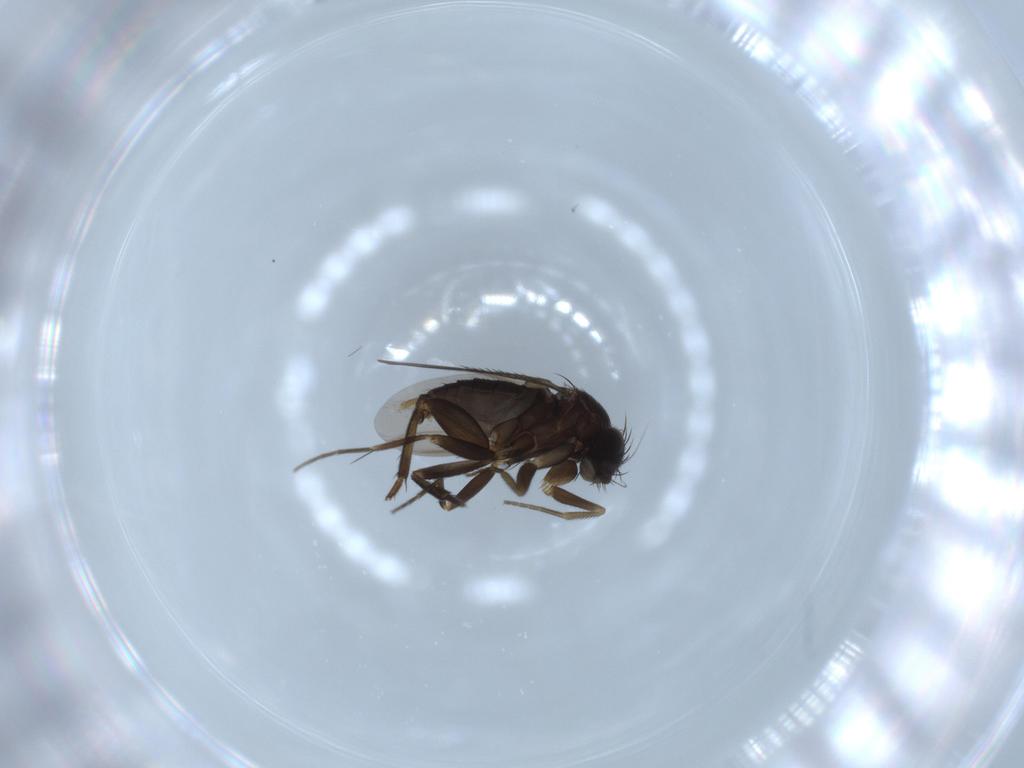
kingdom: Animalia
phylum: Arthropoda
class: Insecta
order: Diptera
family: Phoridae
